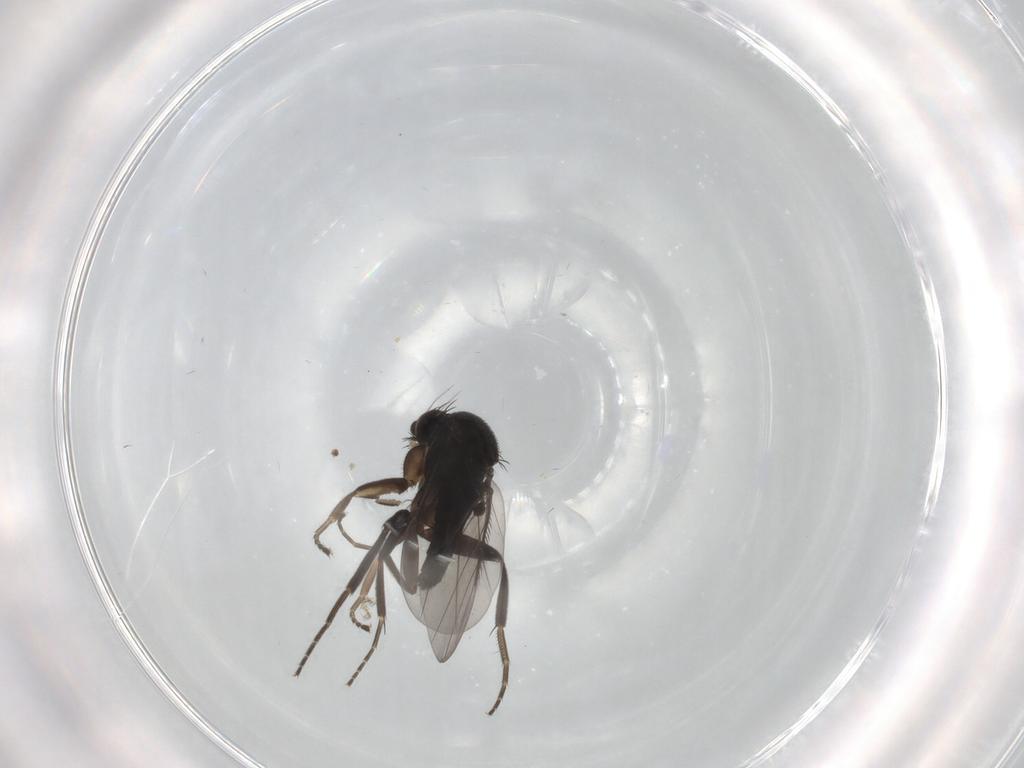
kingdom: Animalia
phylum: Arthropoda
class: Insecta
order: Diptera
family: Phoridae
